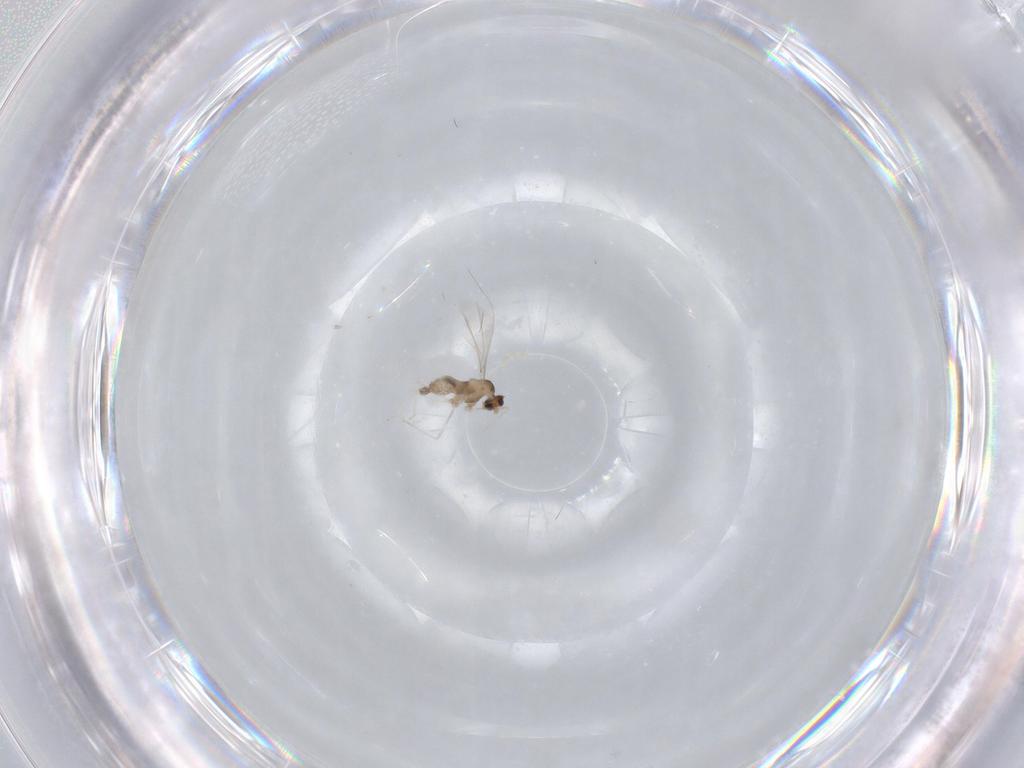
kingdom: Animalia
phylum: Arthropoda
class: Insecta
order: Diptera
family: Cecidomyiidae
